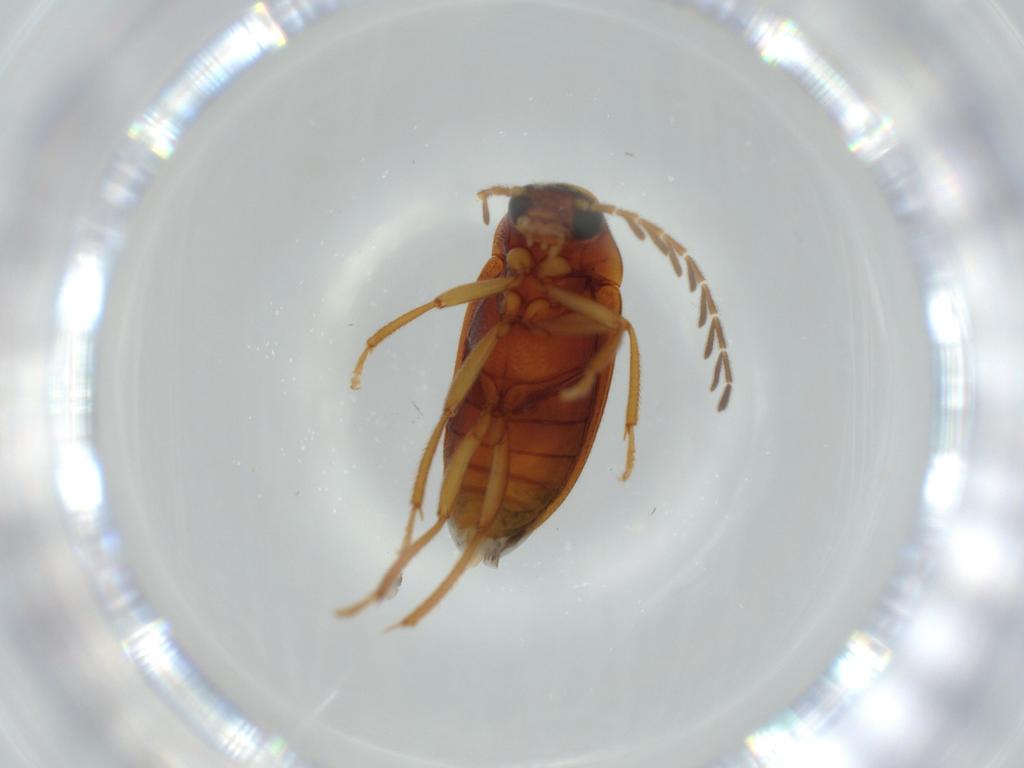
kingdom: Animalia
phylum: Arthropoda
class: Insecta
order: Coleoptera
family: Ptilodactylidae
